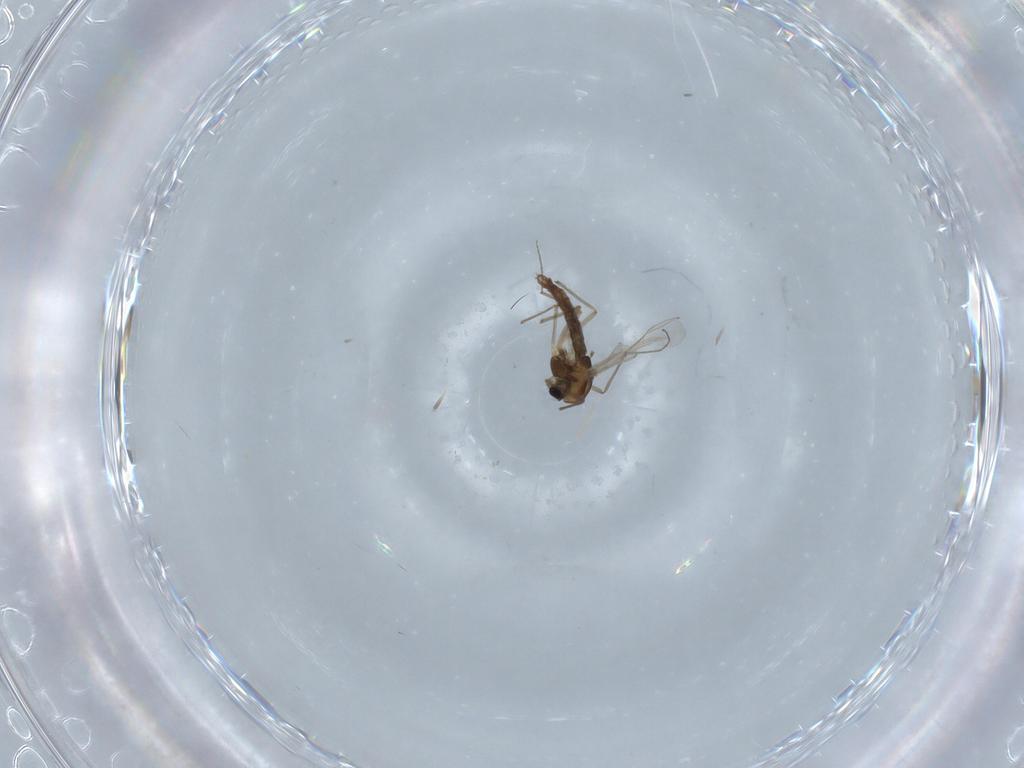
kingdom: Animalia
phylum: Arthropoda
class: Insecta
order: Diptera
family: Chironomidae
